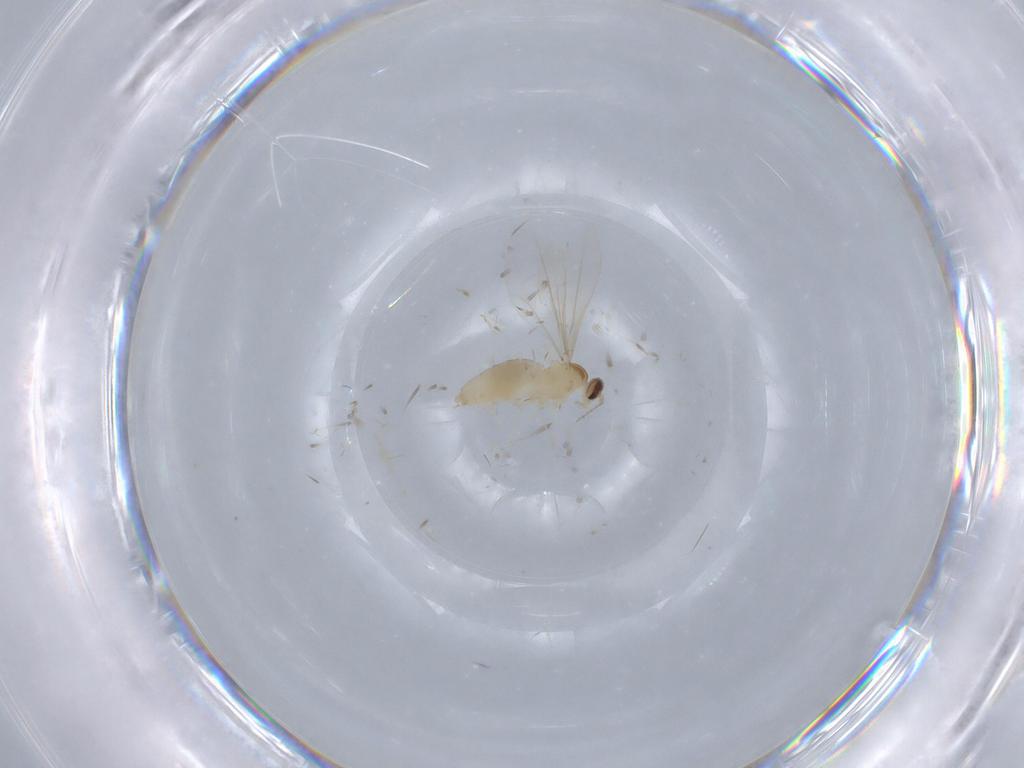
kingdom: Animalia
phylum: Arthropoda
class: Insecta
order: Diptera
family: Cecidomyiidae
